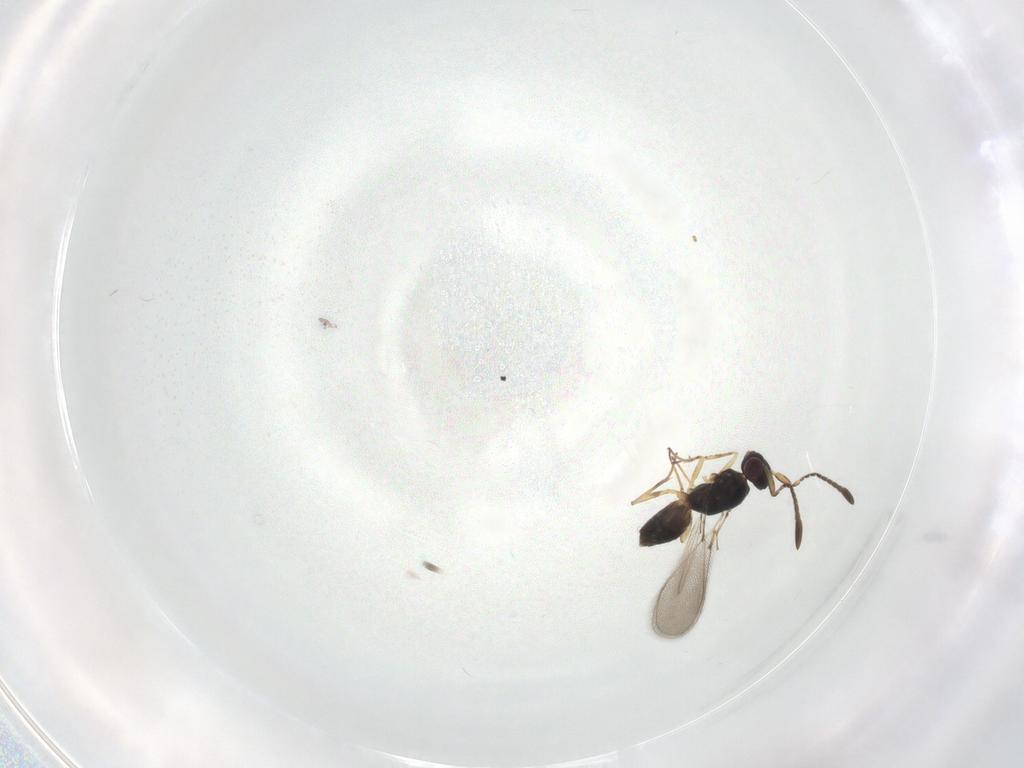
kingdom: Animalia
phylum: Arthropoda
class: Insecta
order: Hymenoptera
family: Mymaridae
